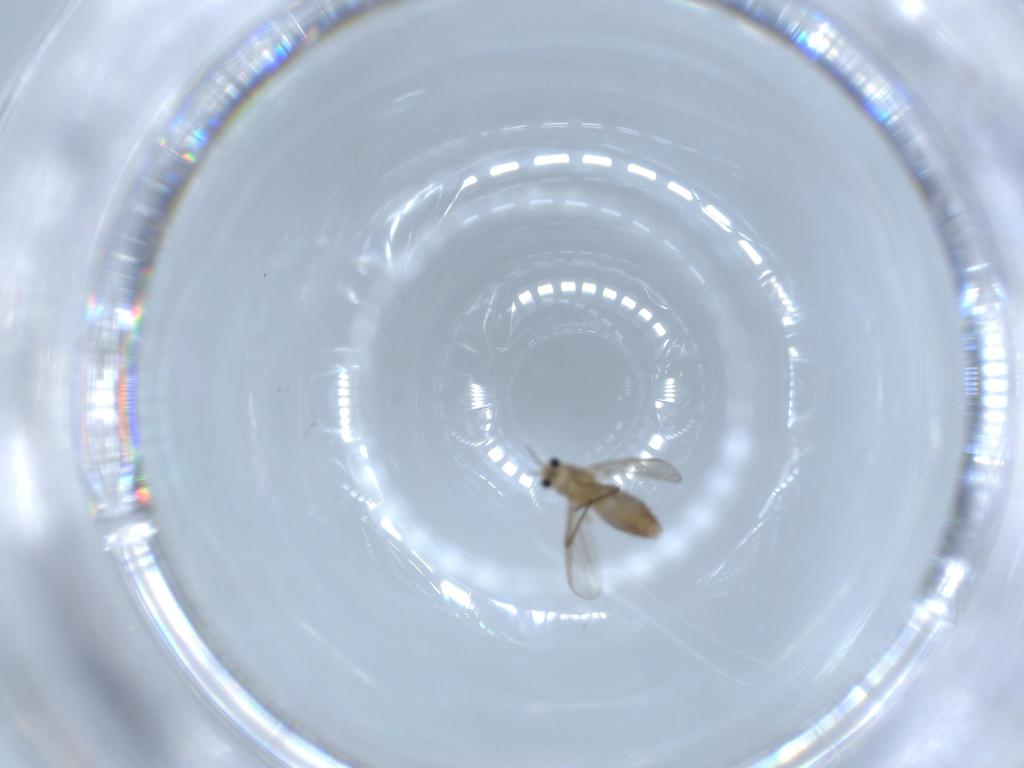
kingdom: Animalia
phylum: Arthropoda
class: Insecta
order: Diptera
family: Chironomidae
